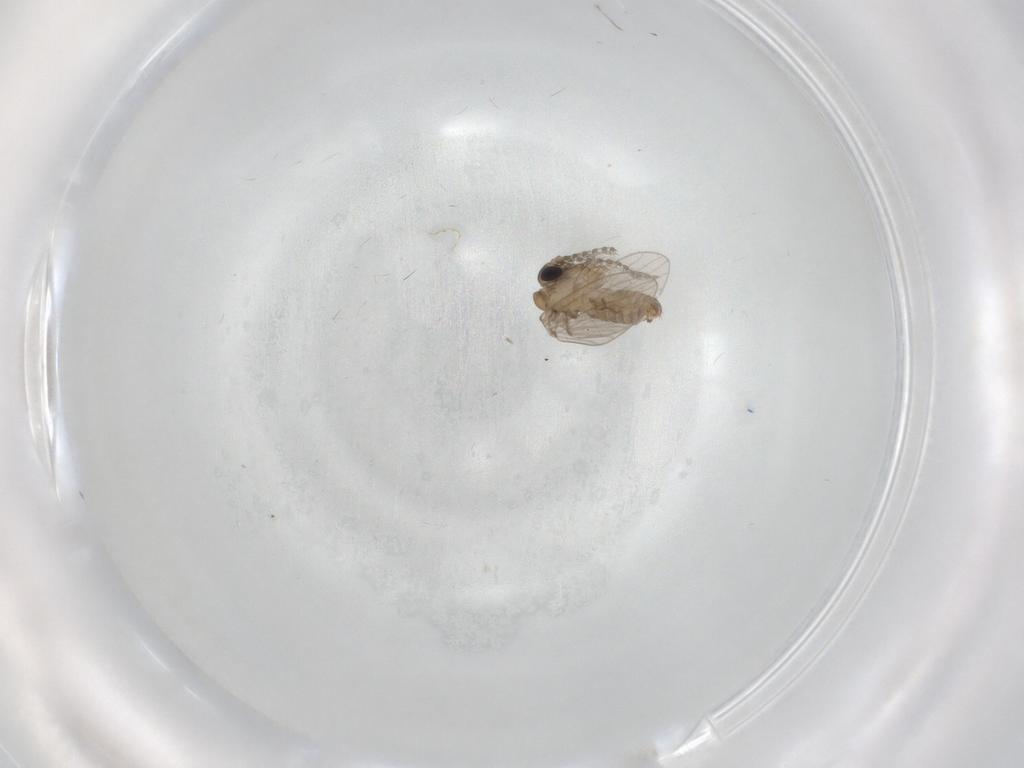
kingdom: Animalia
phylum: Arthropoda
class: Insecta
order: Diptera
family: Psychodidae
